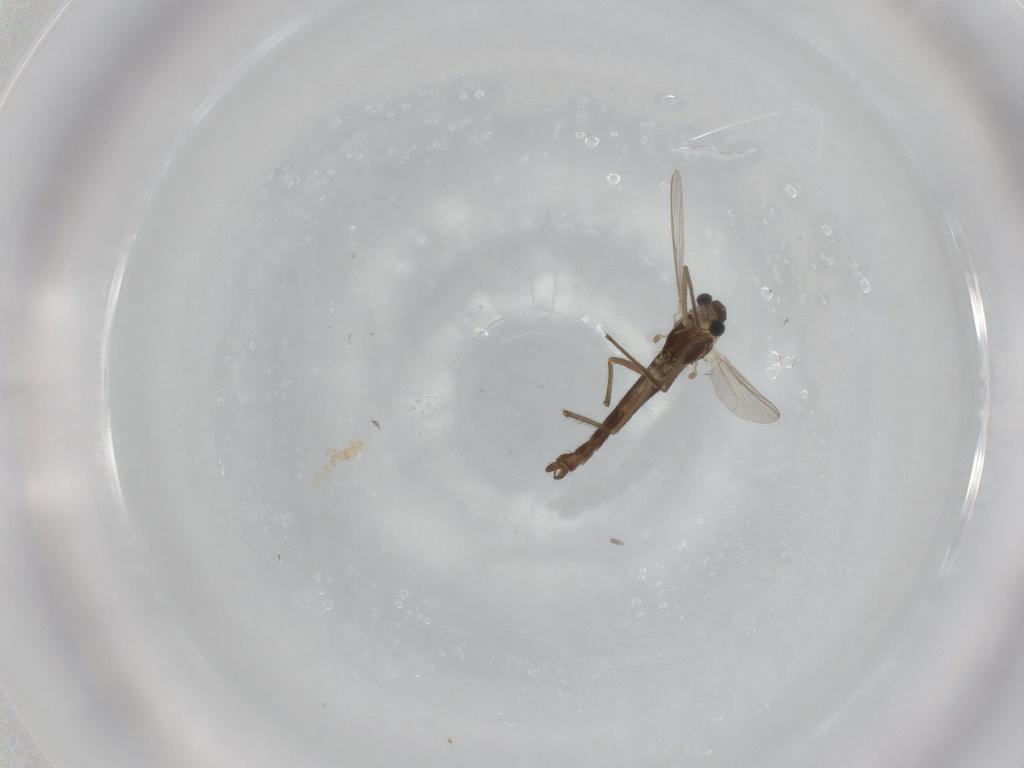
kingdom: Animalia
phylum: Arthropoda
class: Insecta
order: Diptera
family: Chironomidae
